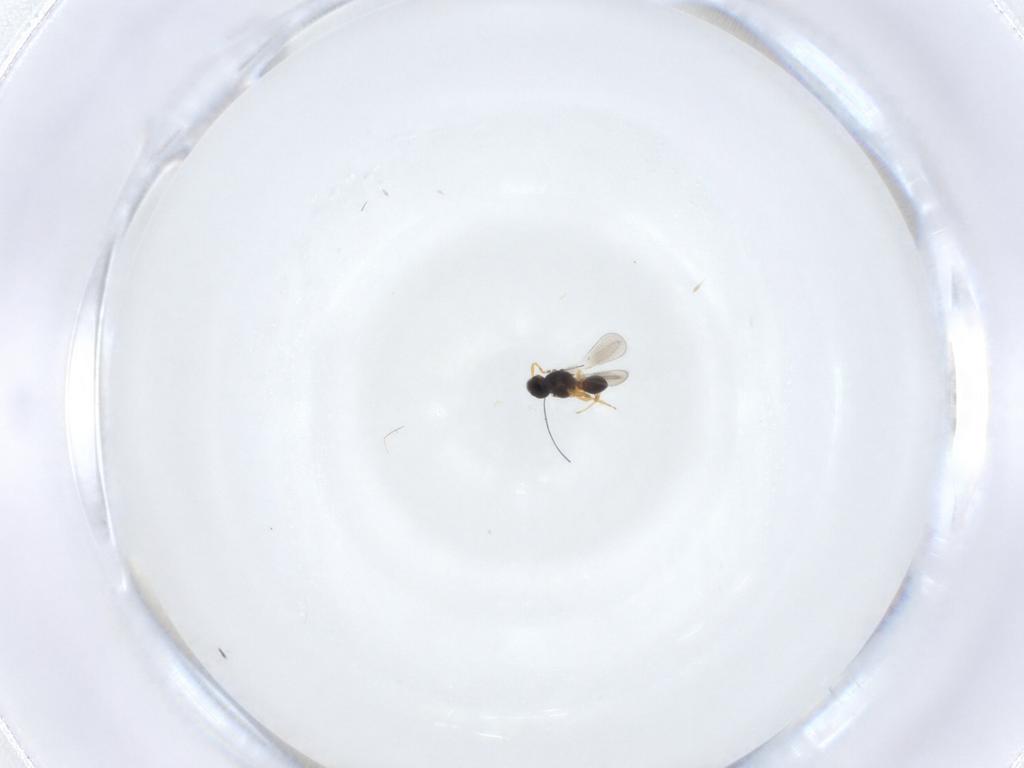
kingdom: Animalia
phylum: Arthropoda
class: Insecta
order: Hymenoptera
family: Platygastridae
